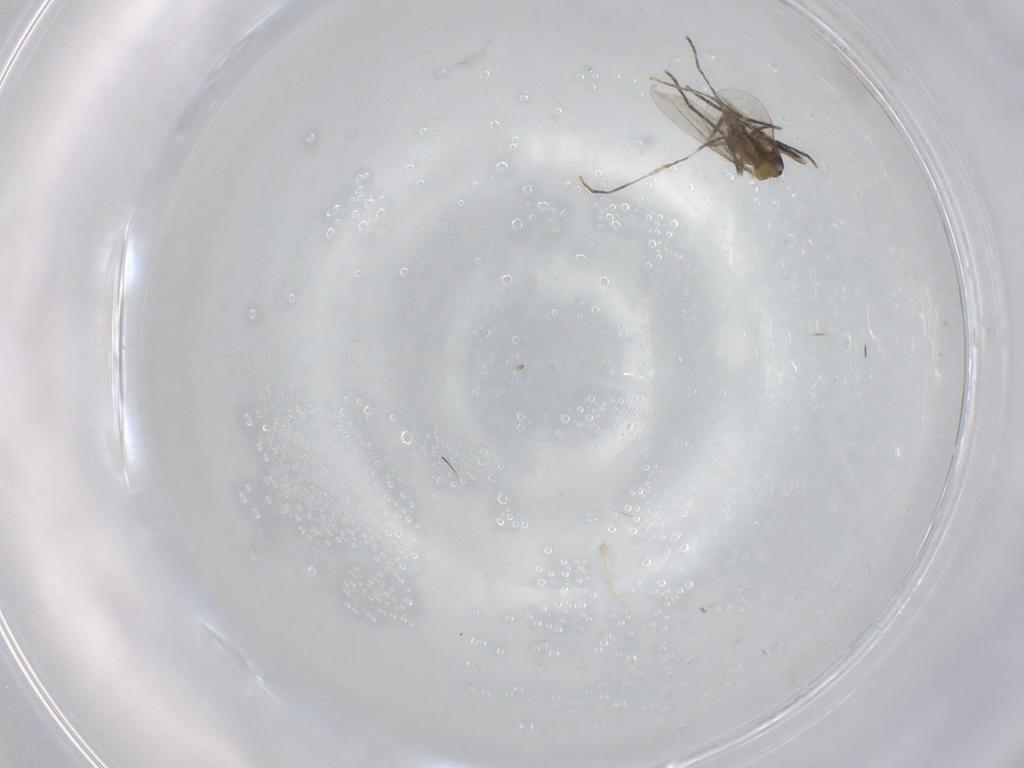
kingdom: Animalia
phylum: Arthropoda
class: Insecta
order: Diptera
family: Cecidomyiidae
